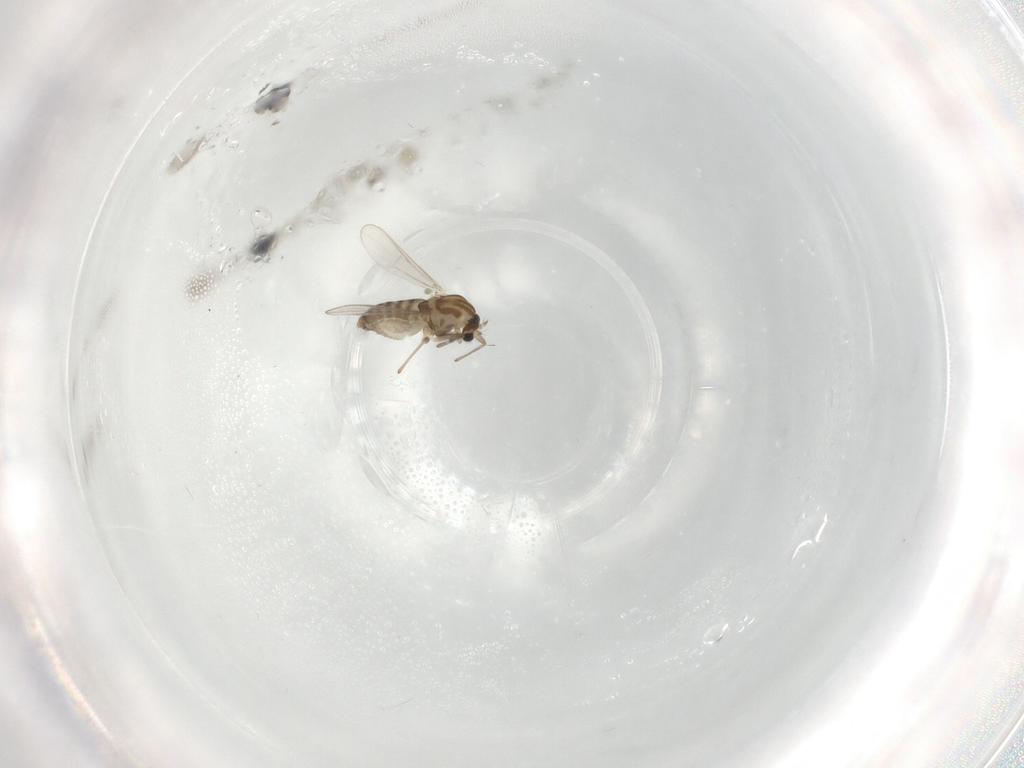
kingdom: Animalia
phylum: Arthropoda
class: Insecta
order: Diptera
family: Chironomidae
